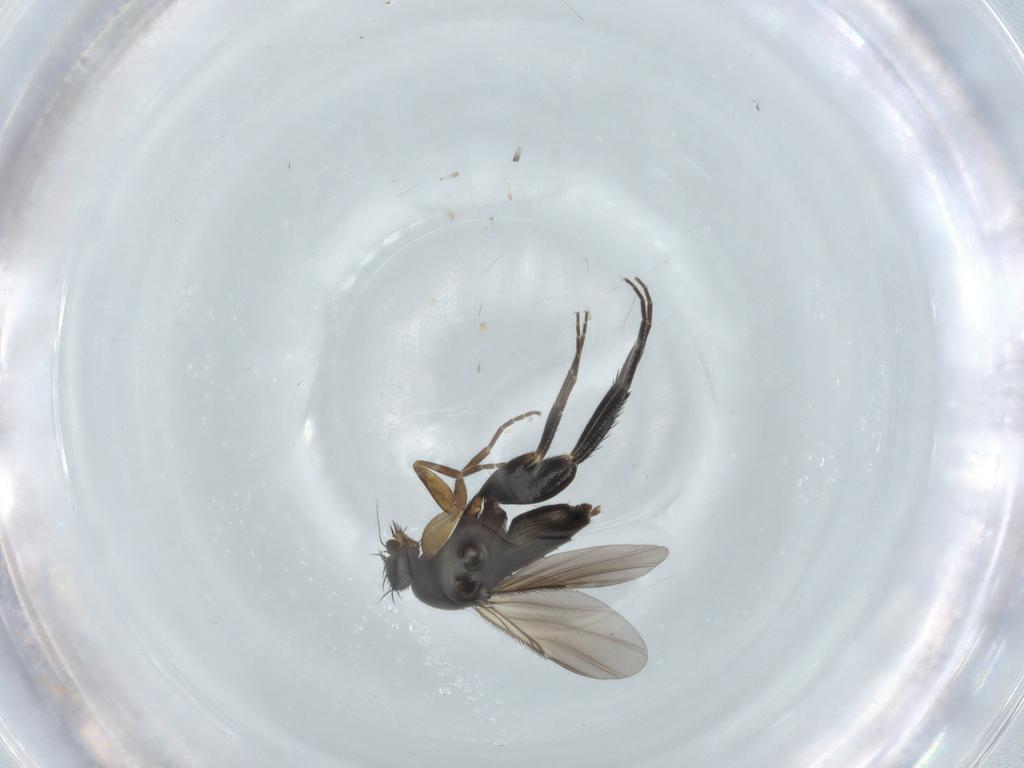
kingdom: Animalia
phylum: Arthropoda
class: Insecta
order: Diptera
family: Phoridae
